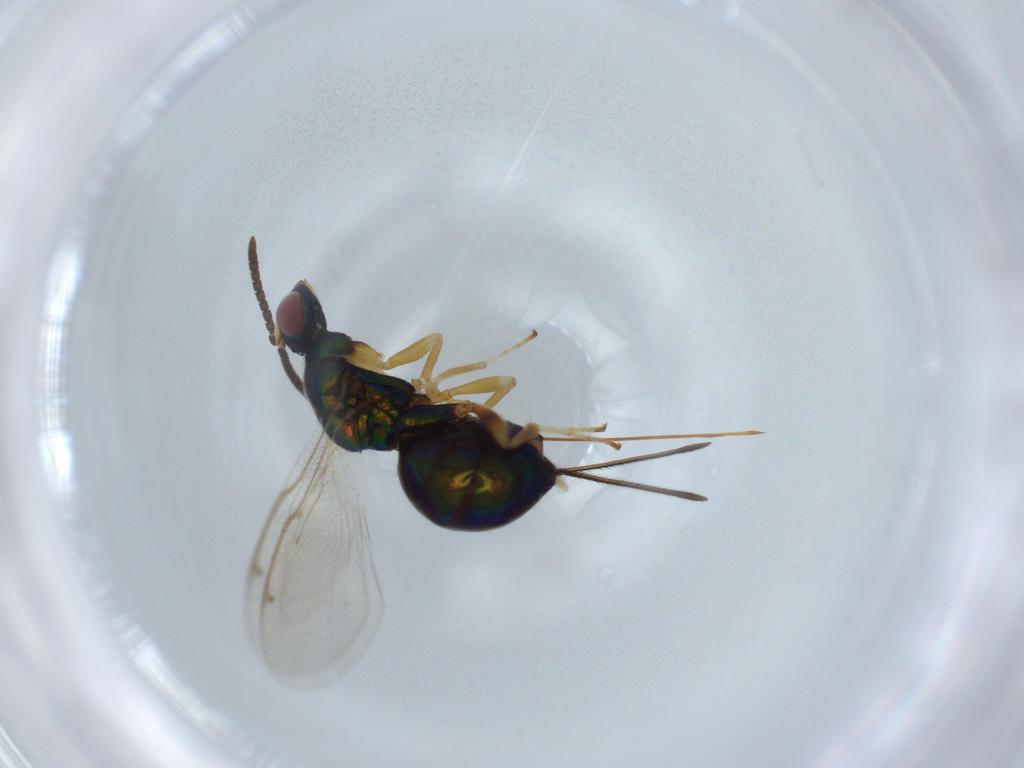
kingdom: Animalia
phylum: Arthropoda
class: Insecta
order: Hymenoptera
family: Torymidae
